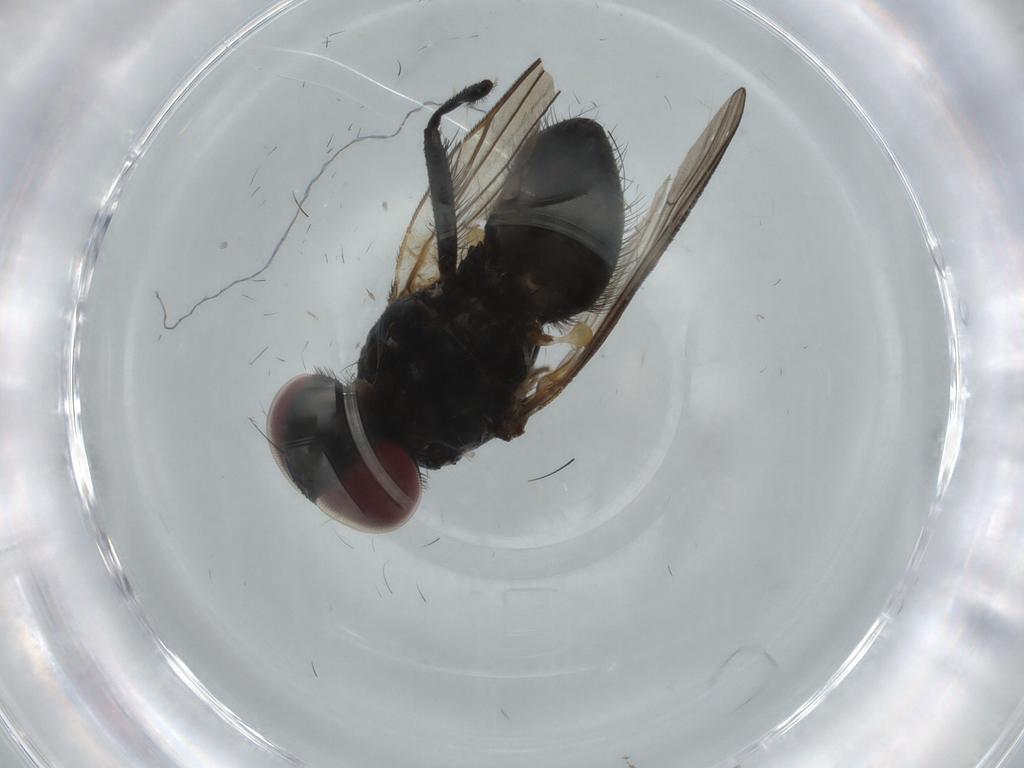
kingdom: Animalia
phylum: Arthropoda
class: Insecta
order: Diptera
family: Fannia
